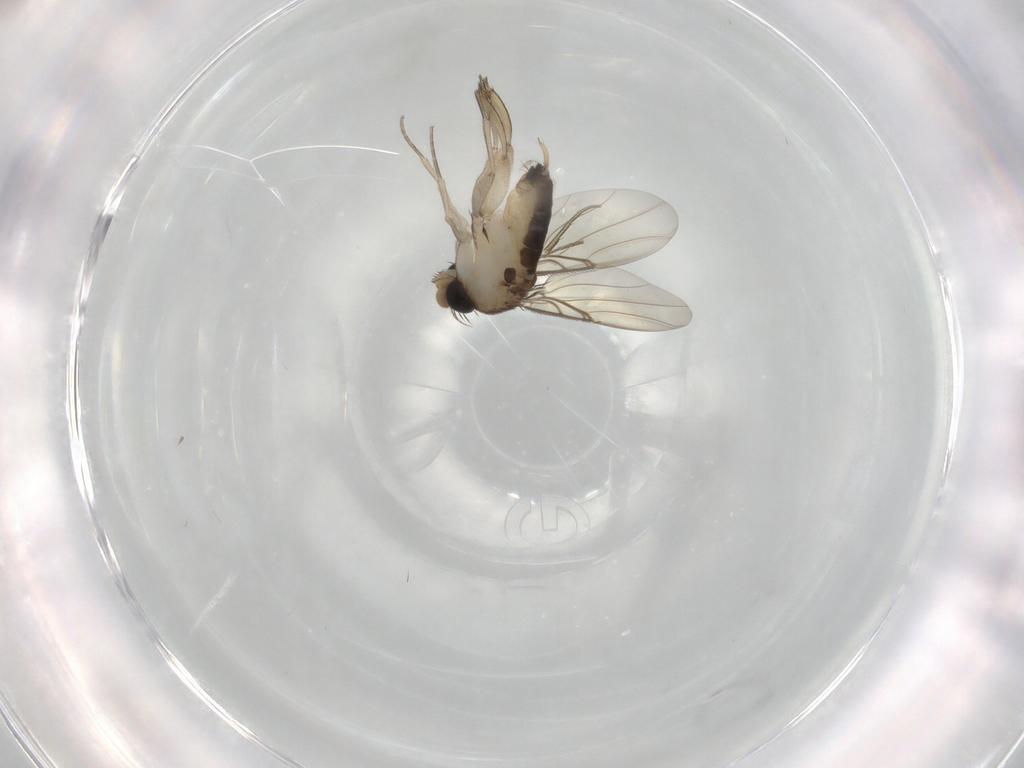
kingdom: Animalia
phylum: Arthropoda
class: Insecta
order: Diptera
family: Phoridae
